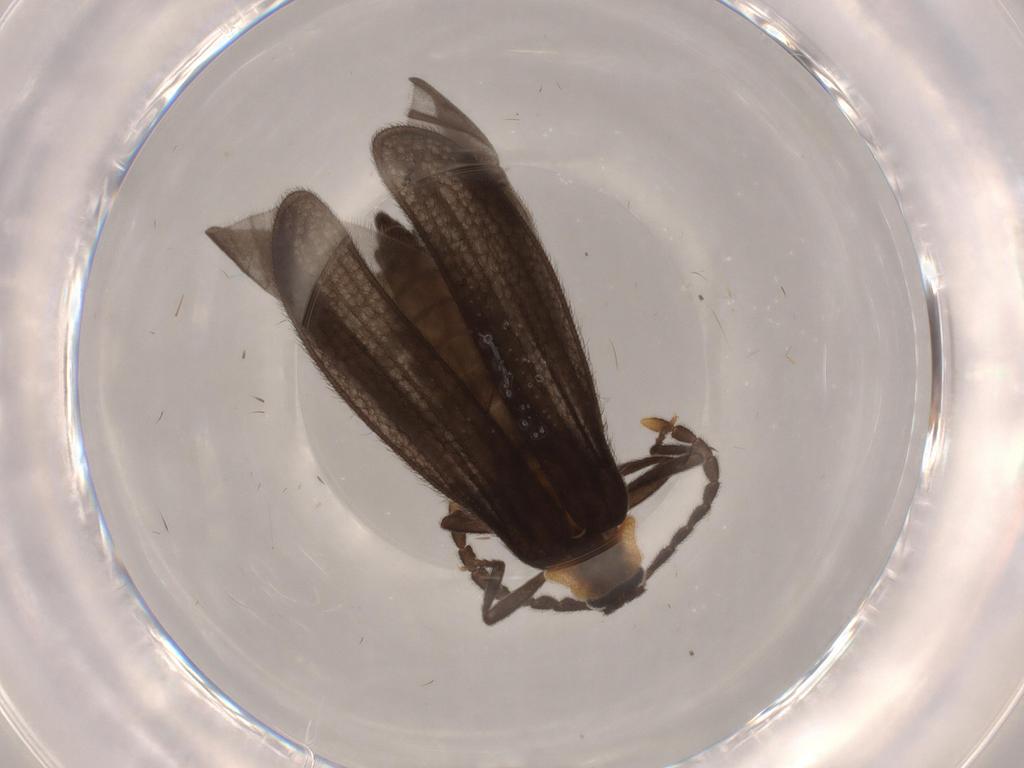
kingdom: Animalia
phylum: Arthropoda
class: Insecta
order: Coleoptera
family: Lycidae
